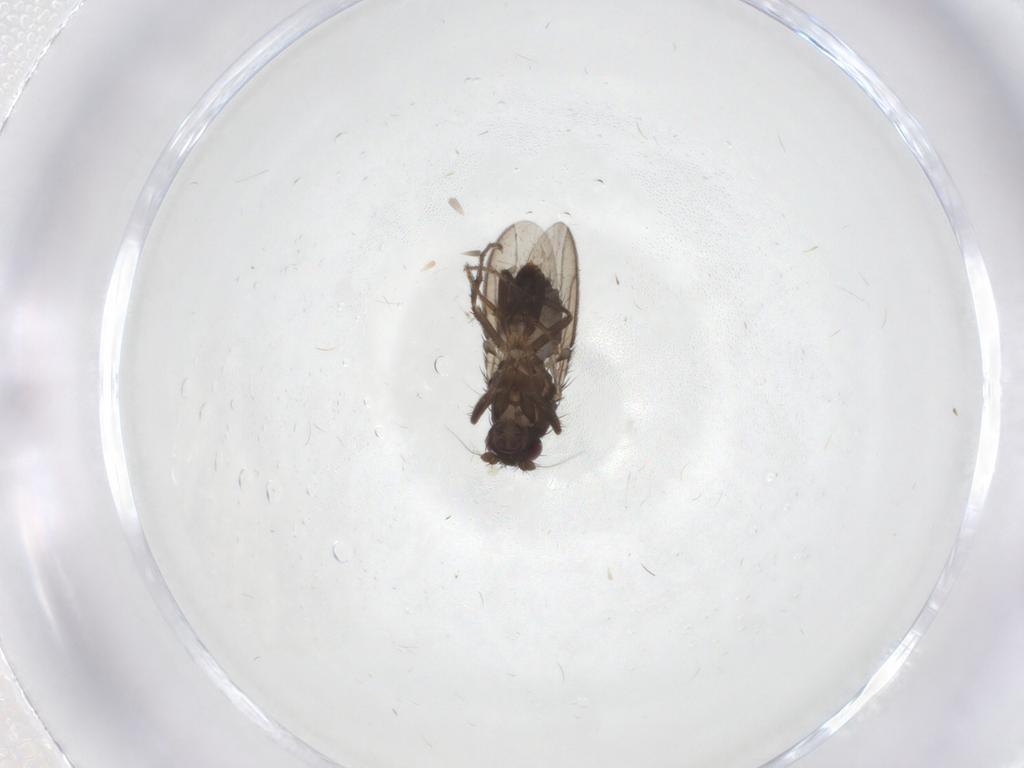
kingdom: Animalia
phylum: Arthropoda
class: Insecta
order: Diptera
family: Sphaeroceridae
